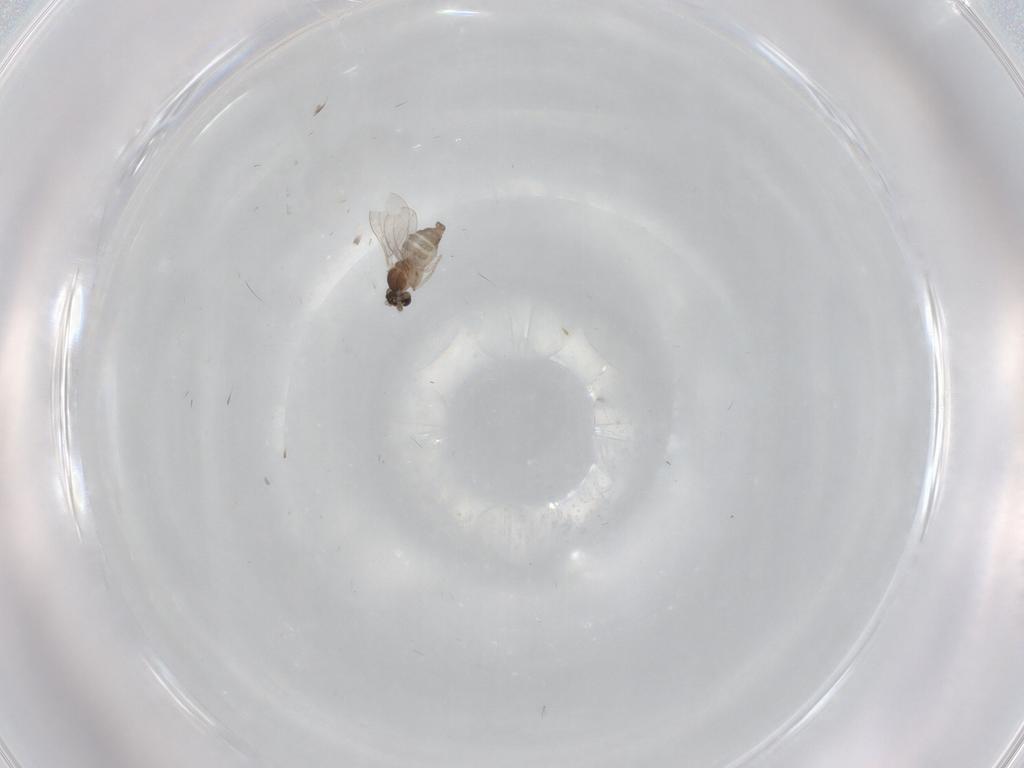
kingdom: Animalia
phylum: Arthropoda
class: Insecta
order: Diptera
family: Phoridae
